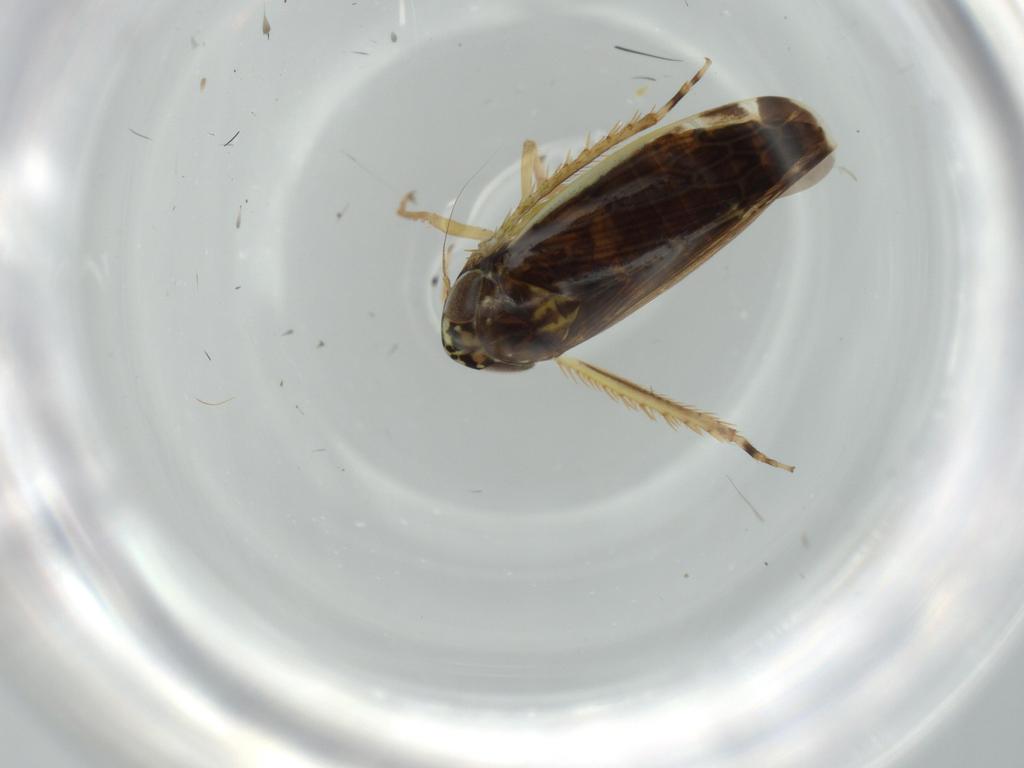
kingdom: Animalia
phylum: Arthropoda
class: Insecta
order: Hemiptera
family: Cicadellidae
